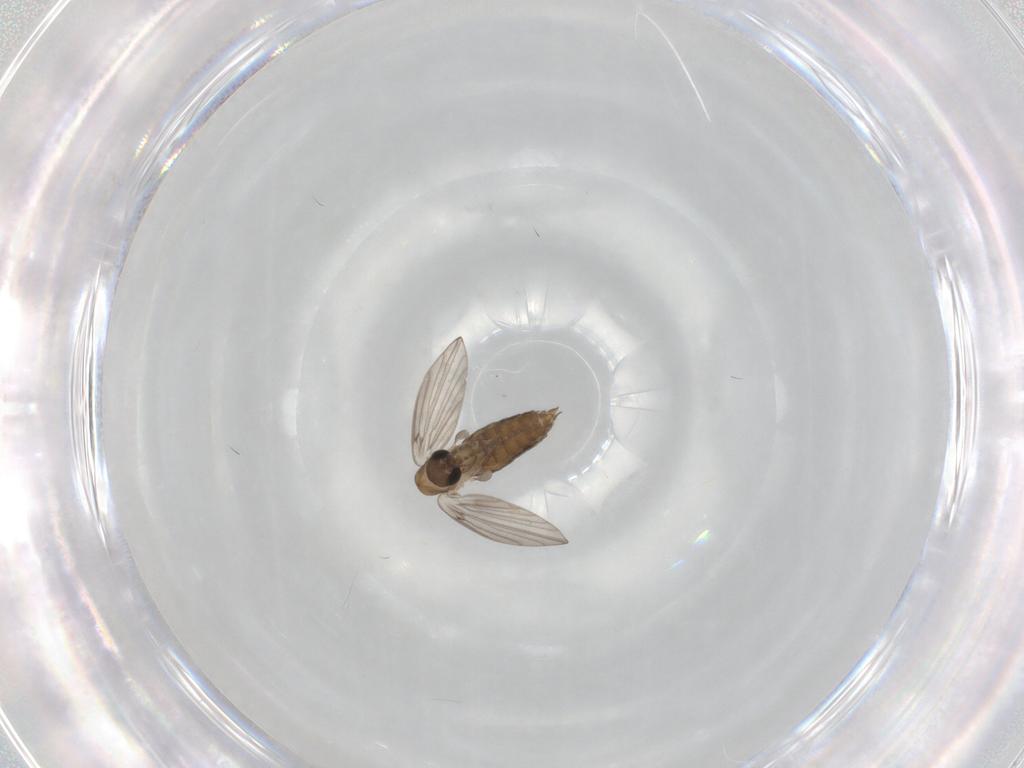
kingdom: Animalia
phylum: Arthropoda
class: Insecta
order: Diptera
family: Psychodidae
